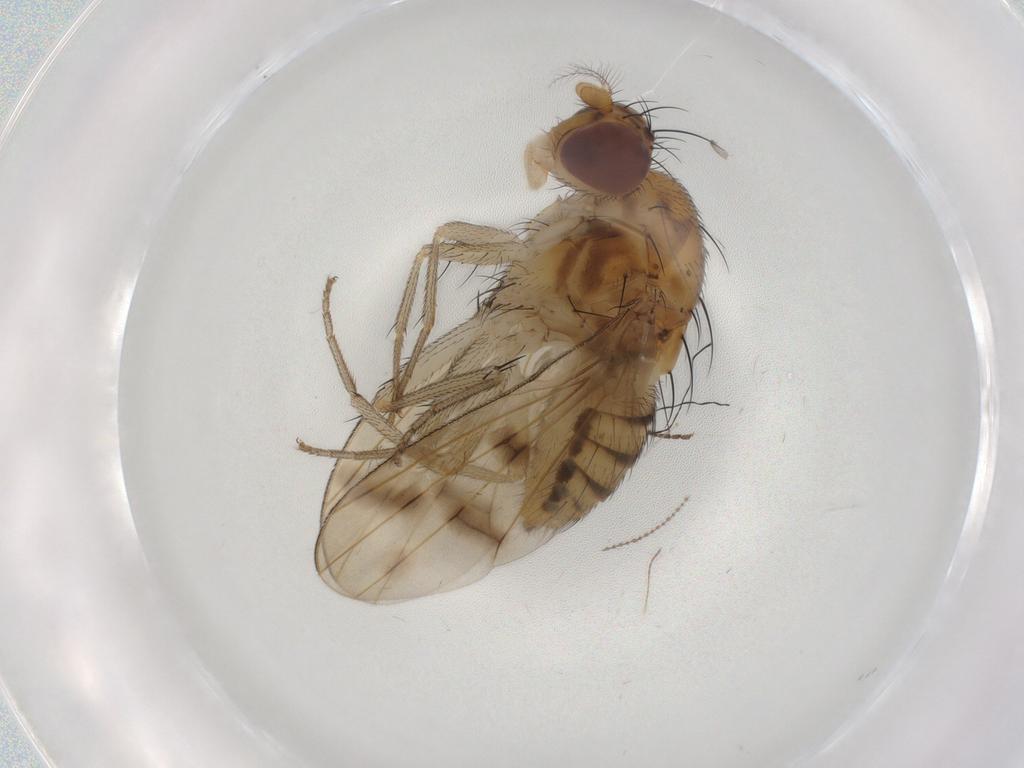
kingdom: Animalia
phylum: Arthropoda
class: Insecta
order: Diptera
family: Ceratopogonidae
